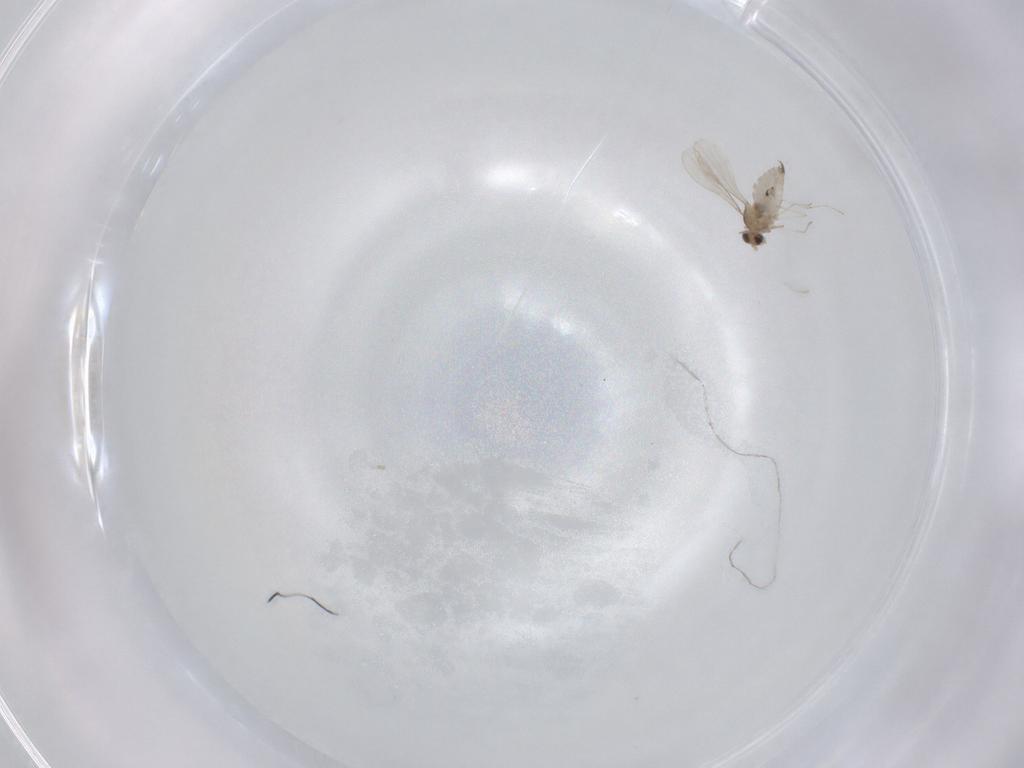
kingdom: Animalia
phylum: Arthropoda
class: Insecta
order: Diptera
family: Cecidomyiidae
